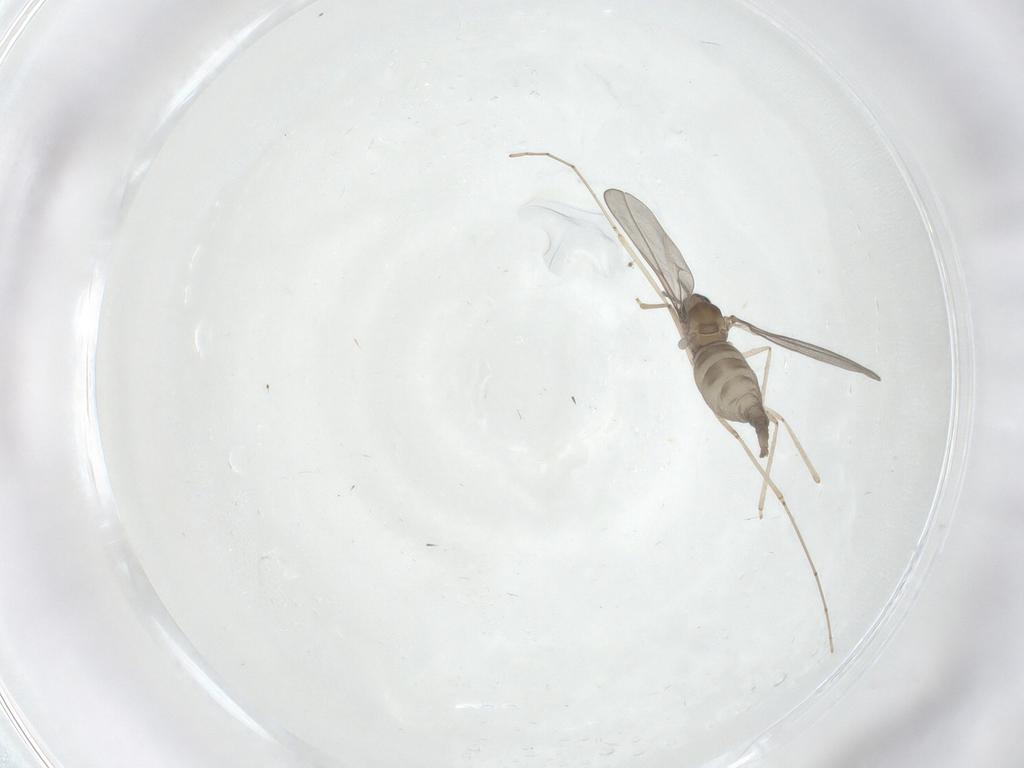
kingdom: Animalia
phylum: Arthropoda
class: Insecta
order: Diptera
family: Cecidomyiidae
